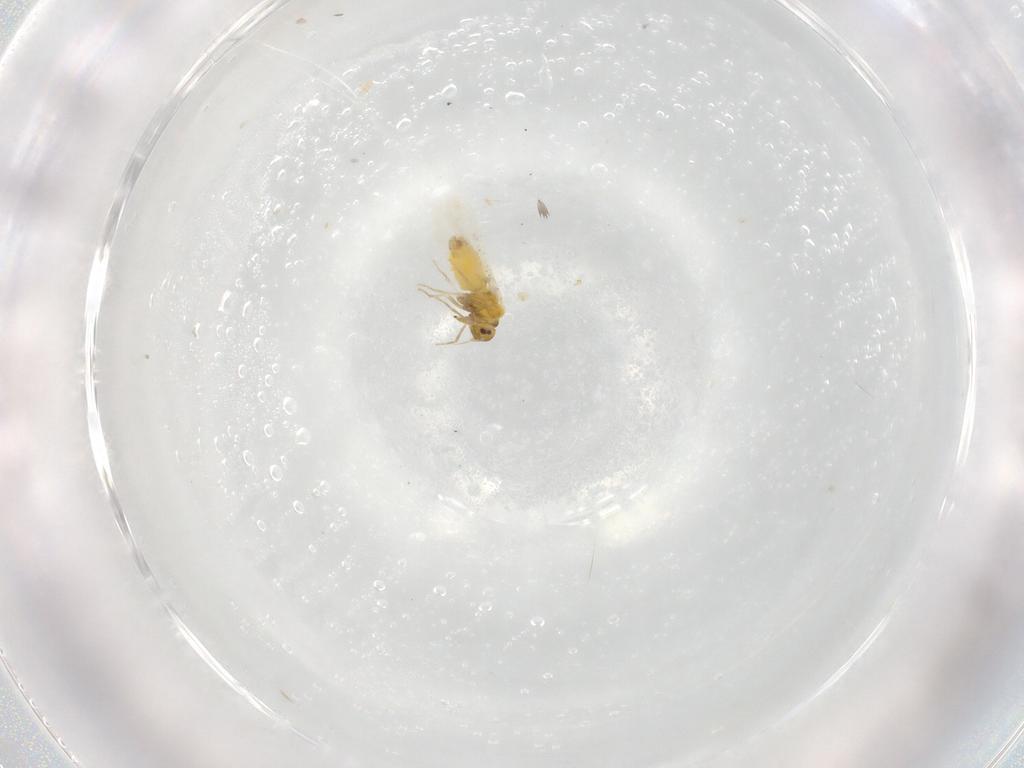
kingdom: Animalia
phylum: Arthropoda
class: Insecta
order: Hemiptera
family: Aleyrodidae
